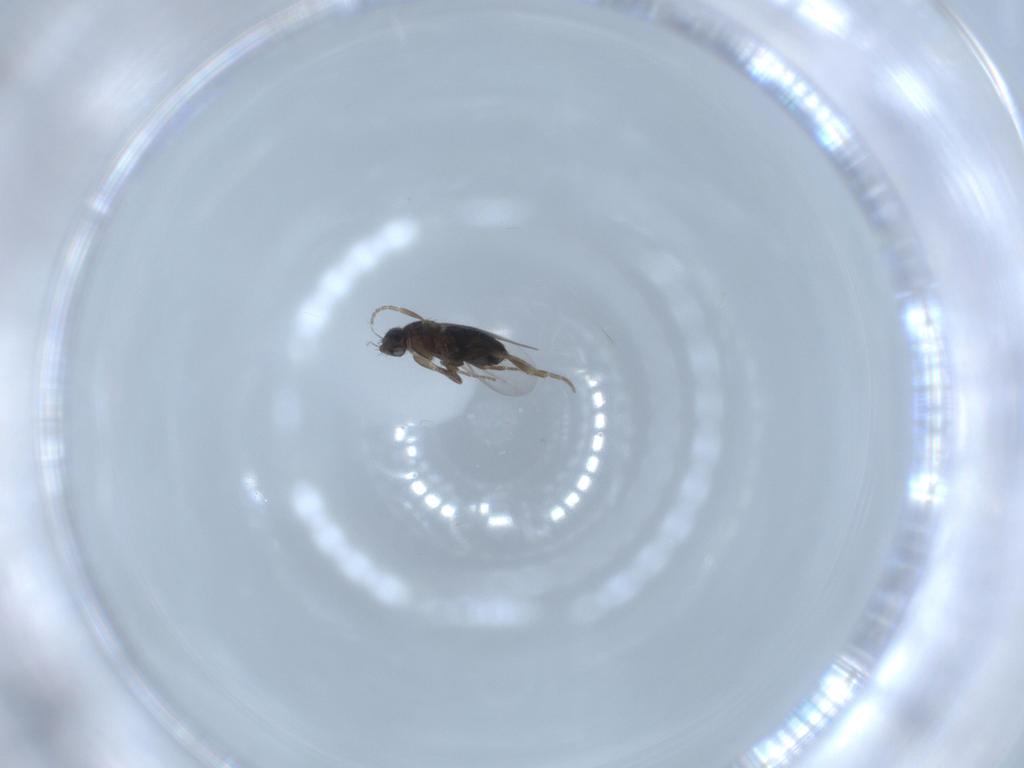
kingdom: Animalia
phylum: Arthropoda
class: Insecta
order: Diptera
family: Phoridae
